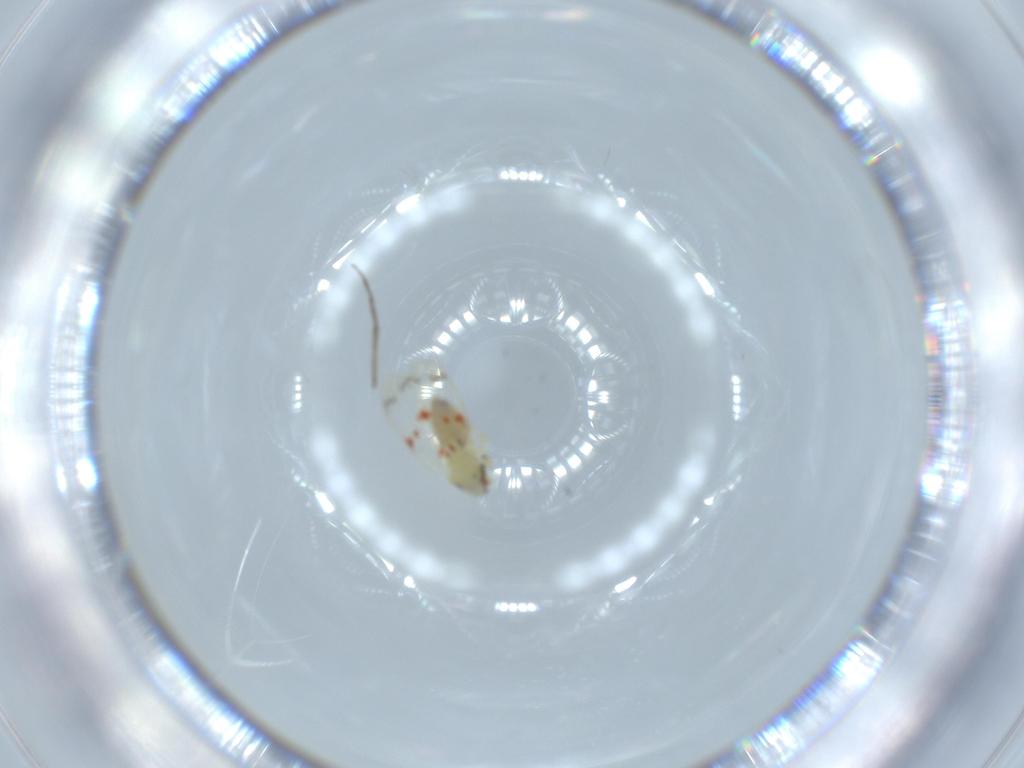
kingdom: Animalia
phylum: Arthropoda
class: Insecta
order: Hemiptera
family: Aleyrodidae
